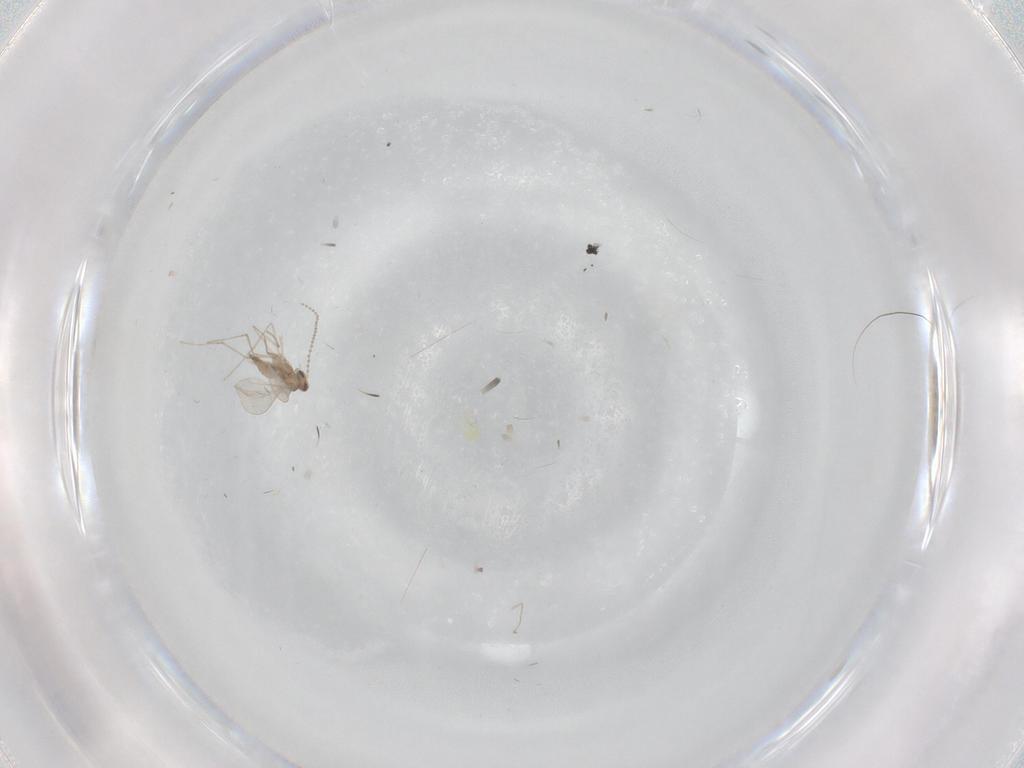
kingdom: Animalia
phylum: Arthropoda
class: Insecta
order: Diptera
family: Cecidomyiidae
